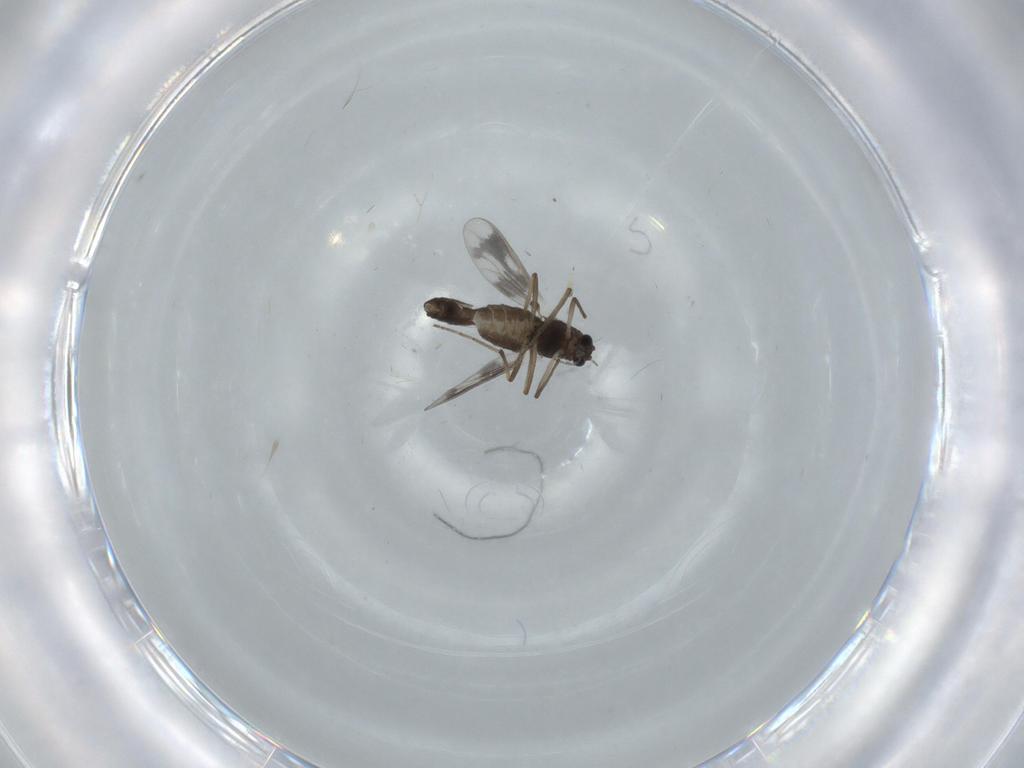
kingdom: Animalia
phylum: Arthropoda
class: Insecta
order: Diptera
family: Chironomidae
